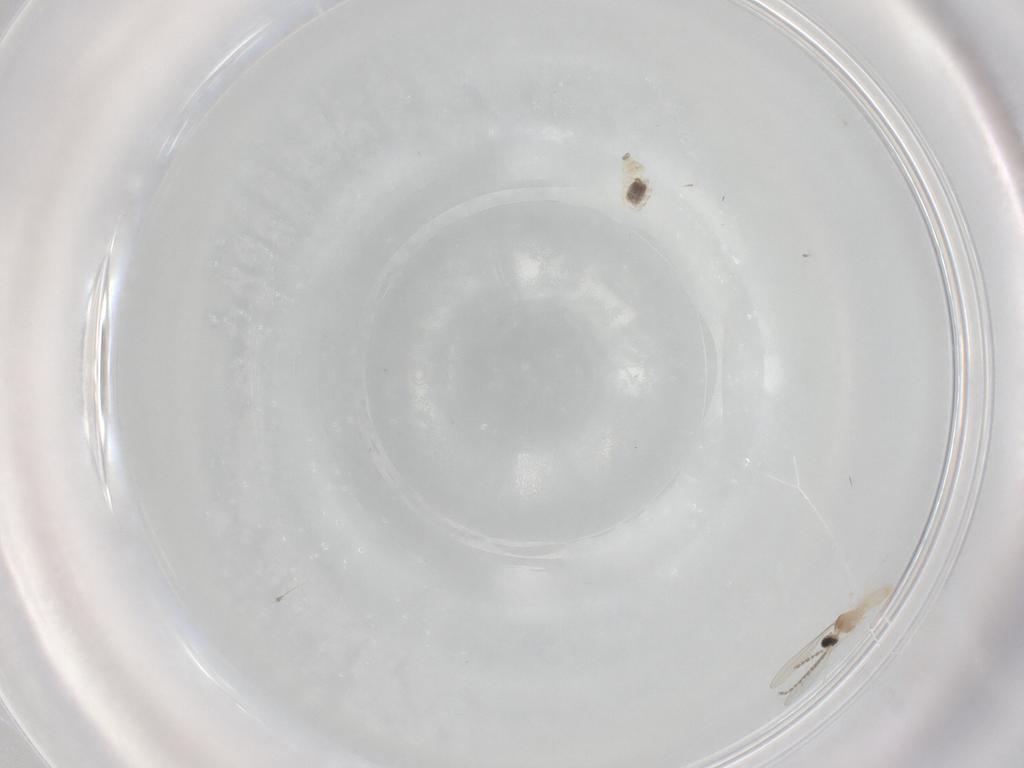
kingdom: Animalia
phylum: Arthropoda
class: Insecta
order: Diptera
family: Cecidomyiidae
